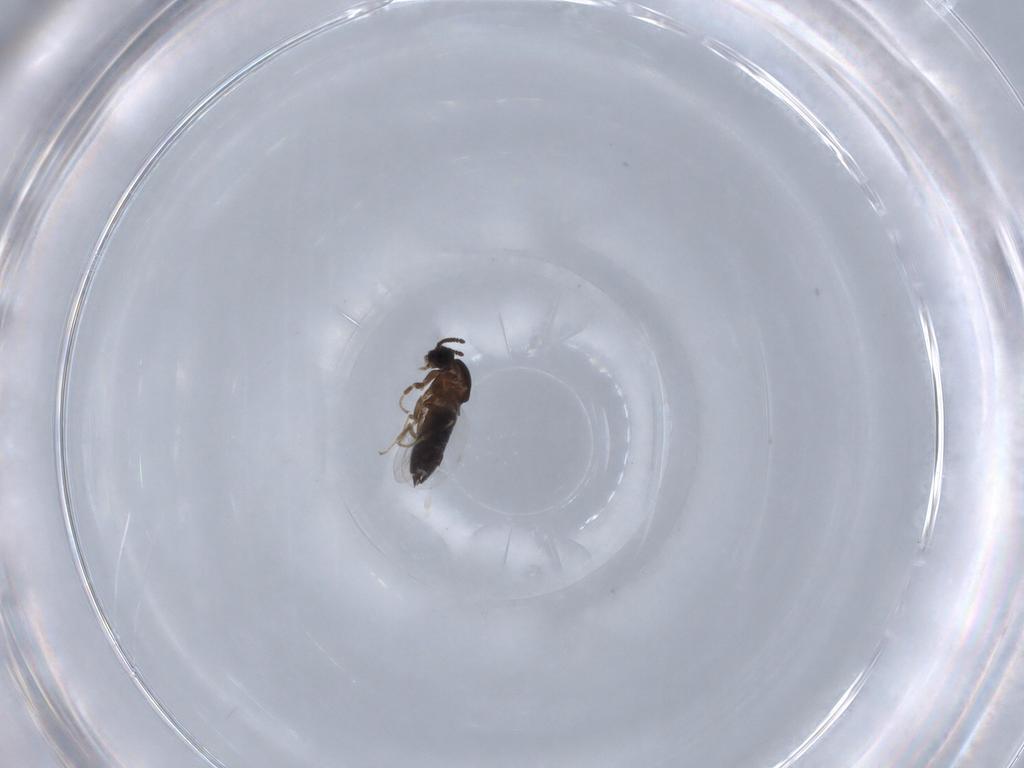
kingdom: Animalia
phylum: Arthropoda
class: Insecta
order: Diptera
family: Scatopsidae
